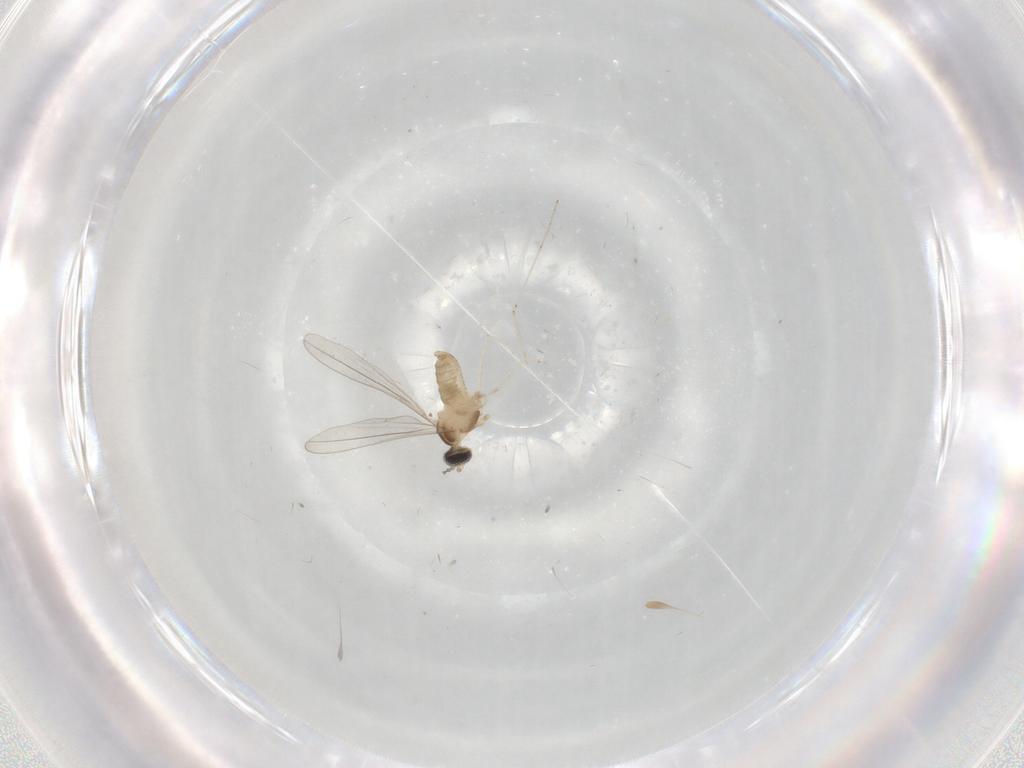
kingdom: Animalia
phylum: Arthropoda
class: Insecta
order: Diptera
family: Cecidomyiidae
